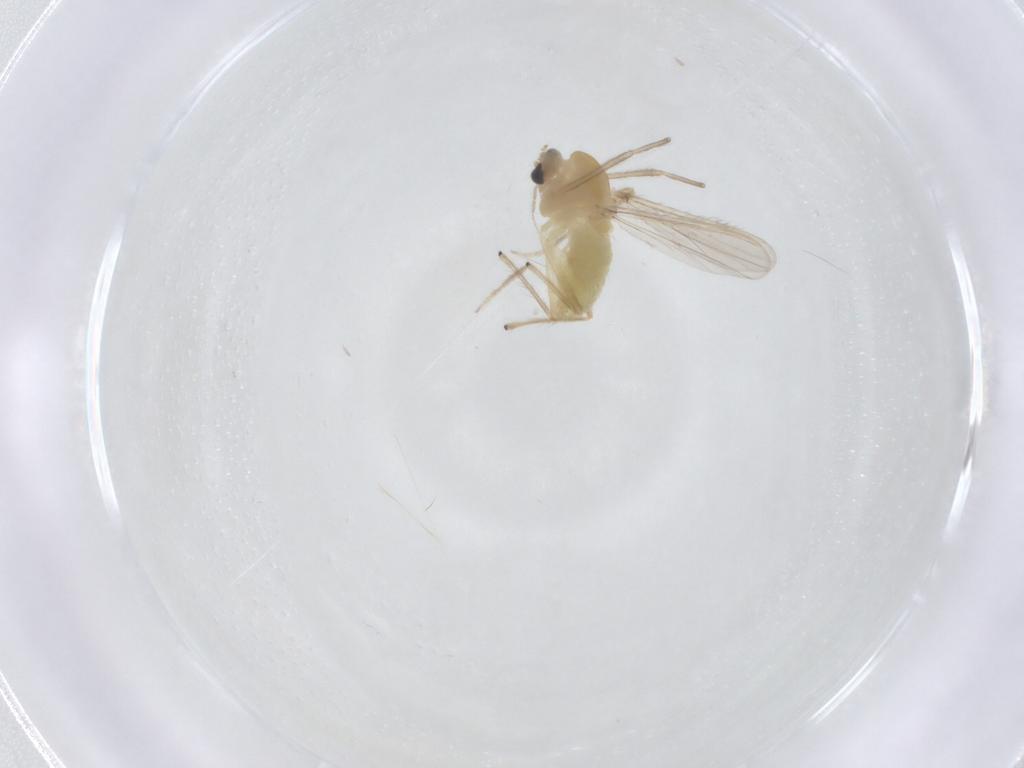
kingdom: Animalia
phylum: Arthropoda
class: Insecta
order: Diptera
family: Chironomidae
